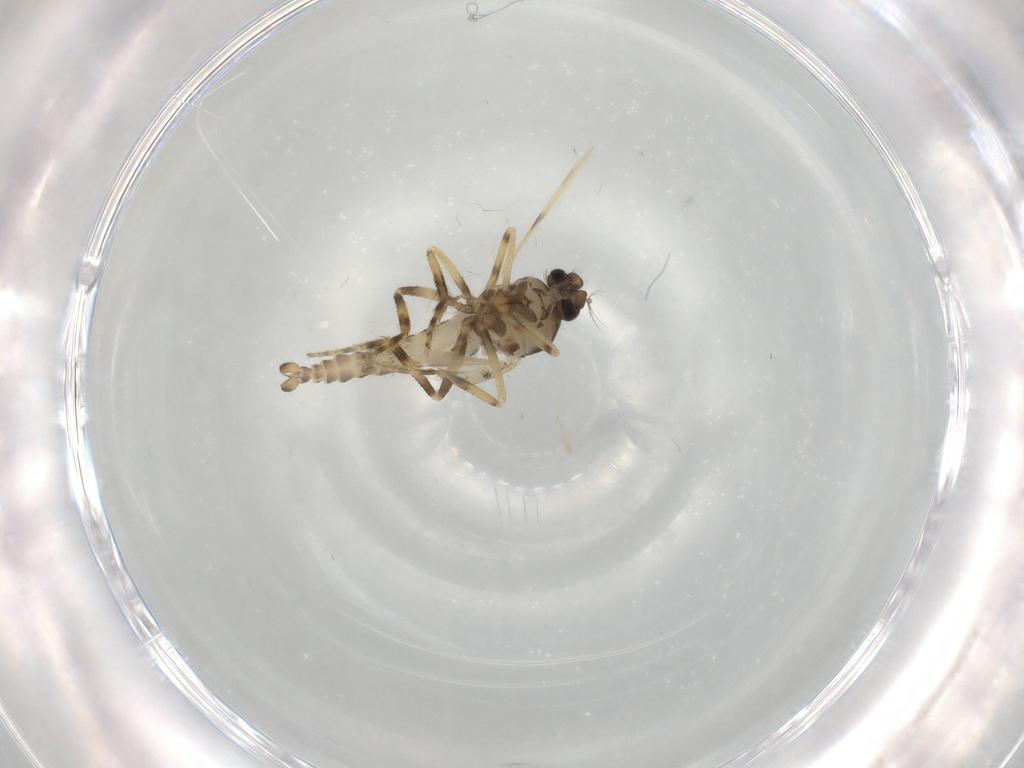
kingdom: Animalia
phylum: Arthropoda
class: Insecta
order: Diptera
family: Ceratopogonidae
